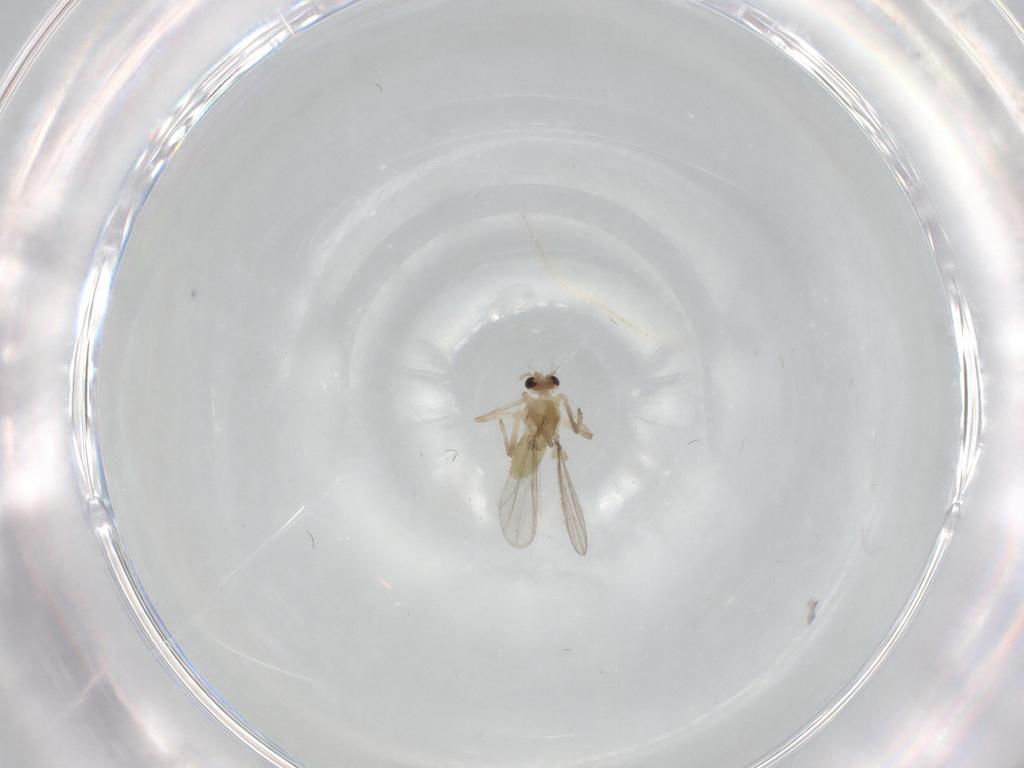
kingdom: Animalia
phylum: Arthropoda
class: Insecta
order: Diptera
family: Chironomidae
